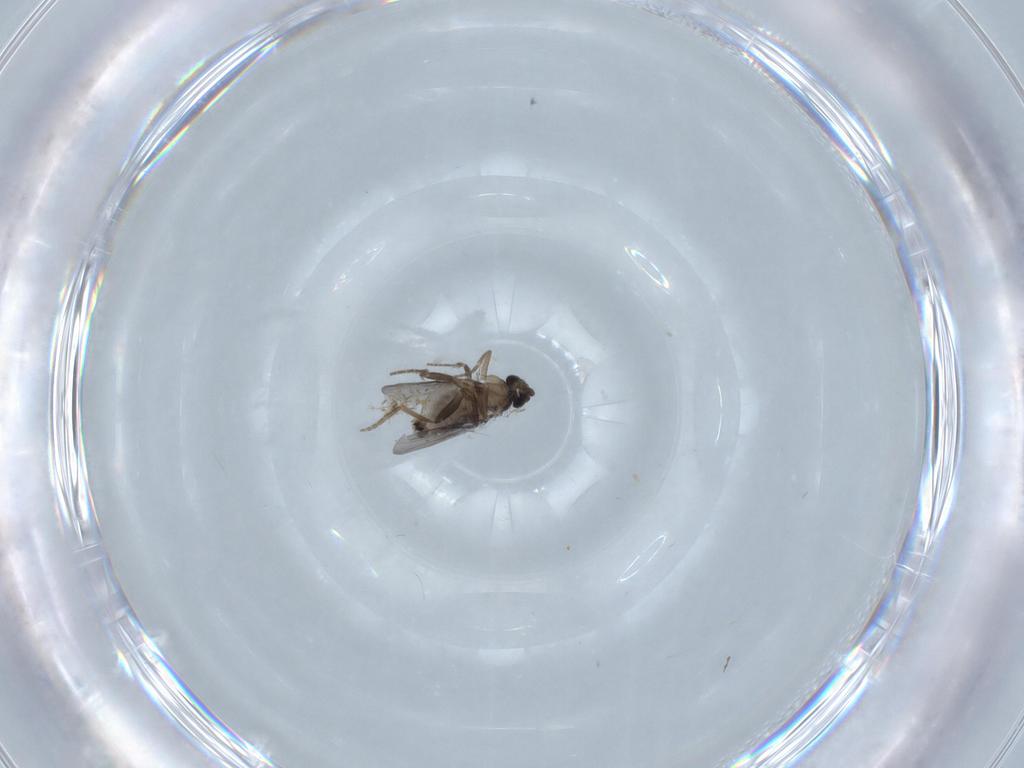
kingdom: Animalia
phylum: Arthropoda
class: Insecta
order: Diptera
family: Psychodidae
